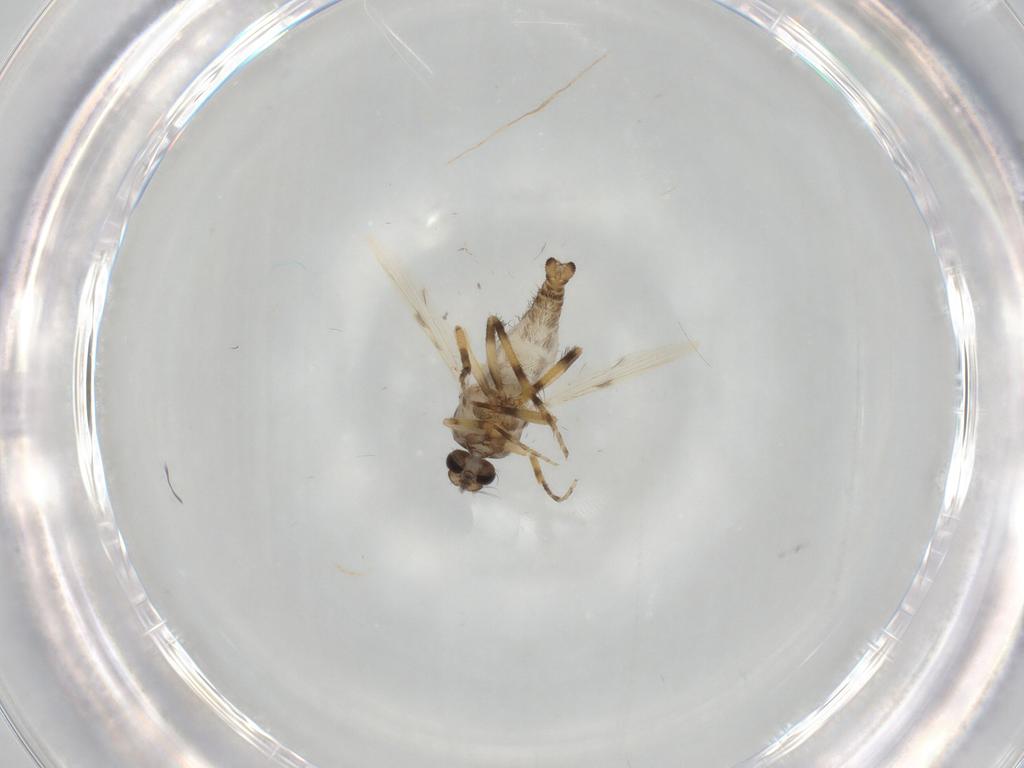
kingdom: Animalia
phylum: Arthropoda
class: Insecta
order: Diptera
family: Ceratopogonidae
